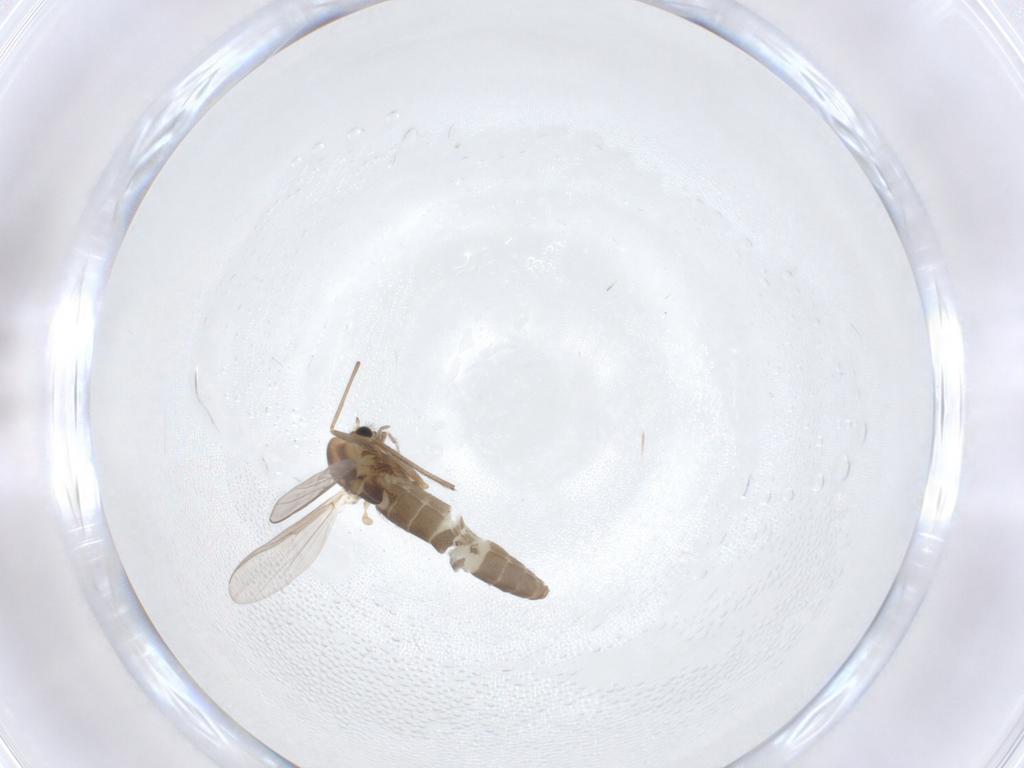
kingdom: Animalia
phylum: Arthropoda
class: Insecta
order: Diptera
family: Chironomidae
